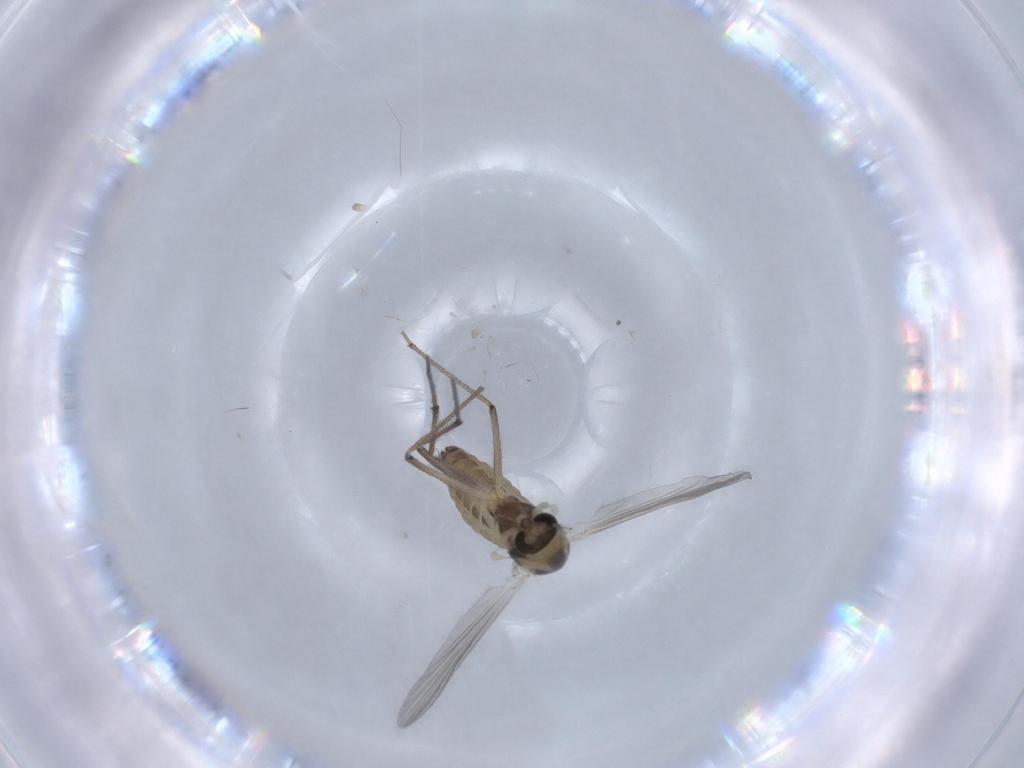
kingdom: Animalia
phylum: Arthropoda
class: Insecta
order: Diptera
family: Chironomidae
